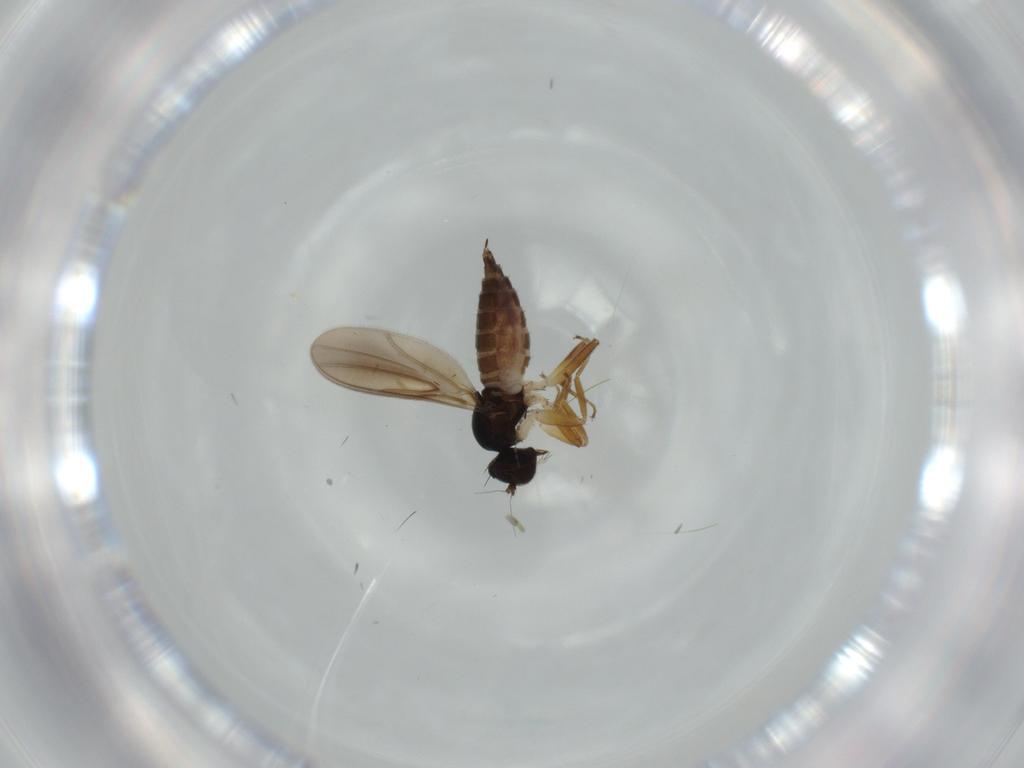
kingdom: Animalia
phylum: Arthropoda
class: Insecta
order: Diptera
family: Hybotidae
